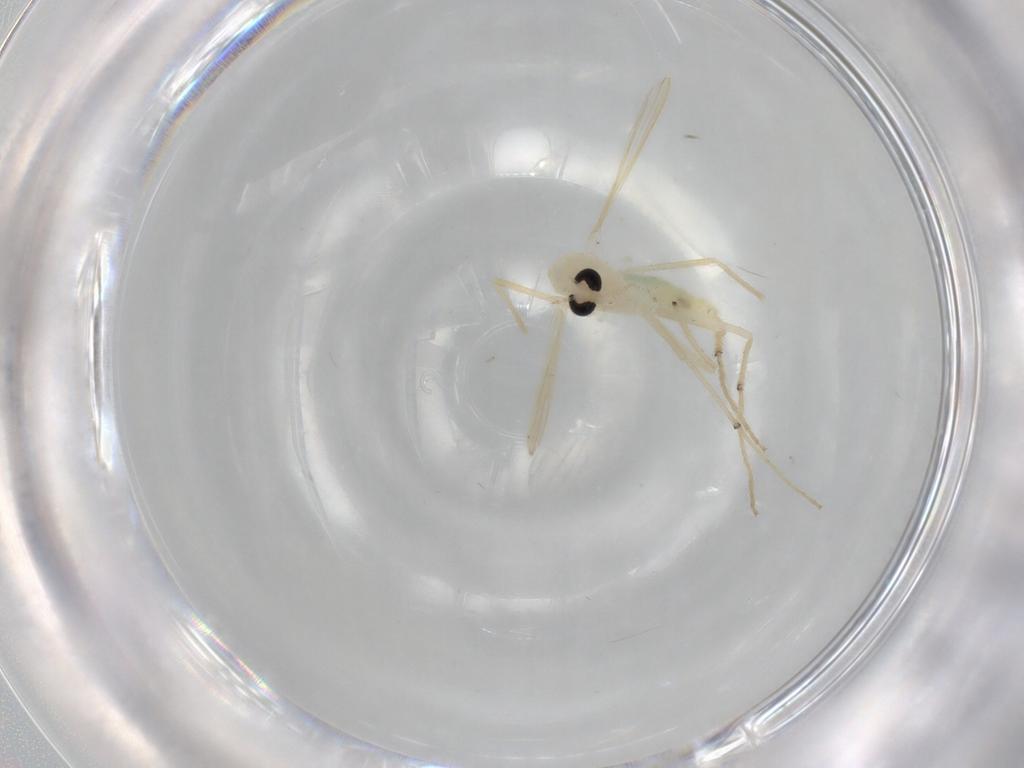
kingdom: Animalia
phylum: Arthropoda
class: Insecta
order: Diptera
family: Chironomidae
